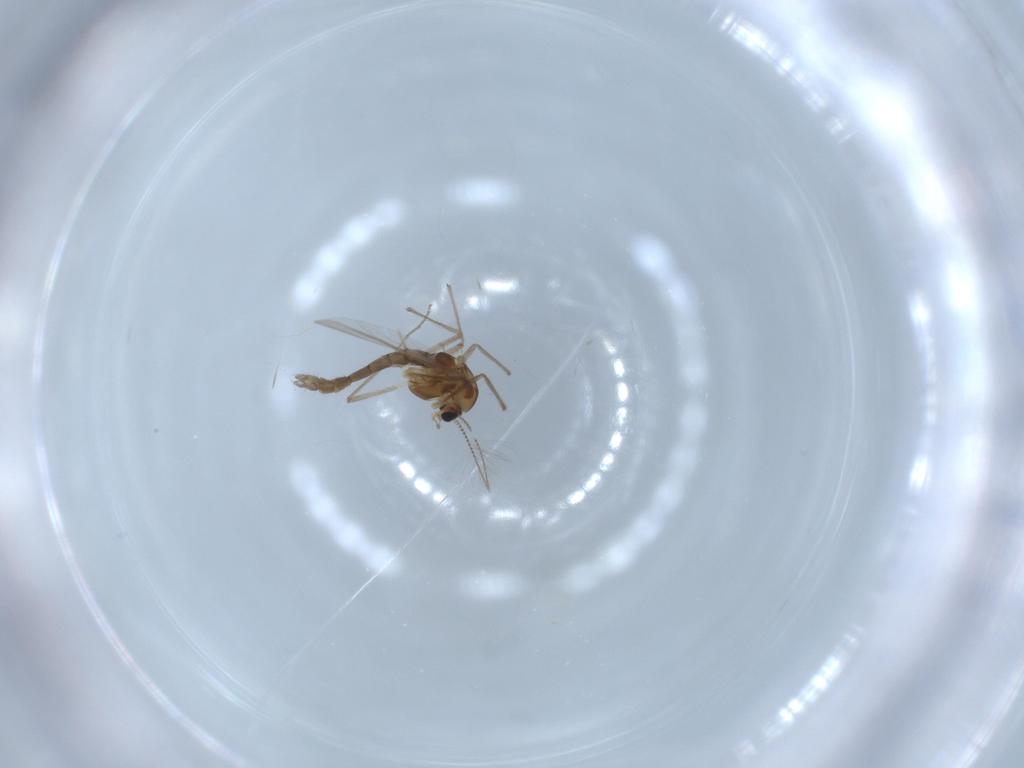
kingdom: Animalia
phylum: Arthropoda
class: Insecta
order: Diptera
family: Chironomidae
